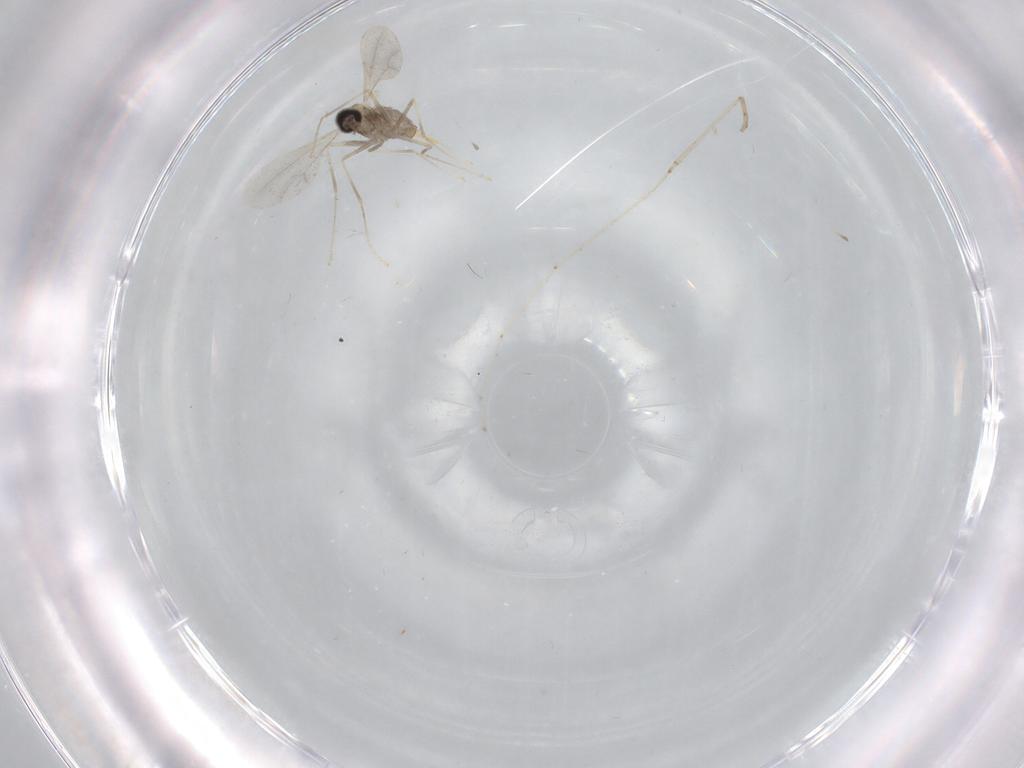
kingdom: Animalia
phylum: Arthropoda
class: Insecta
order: Diptera
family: Cecidomyiidae
